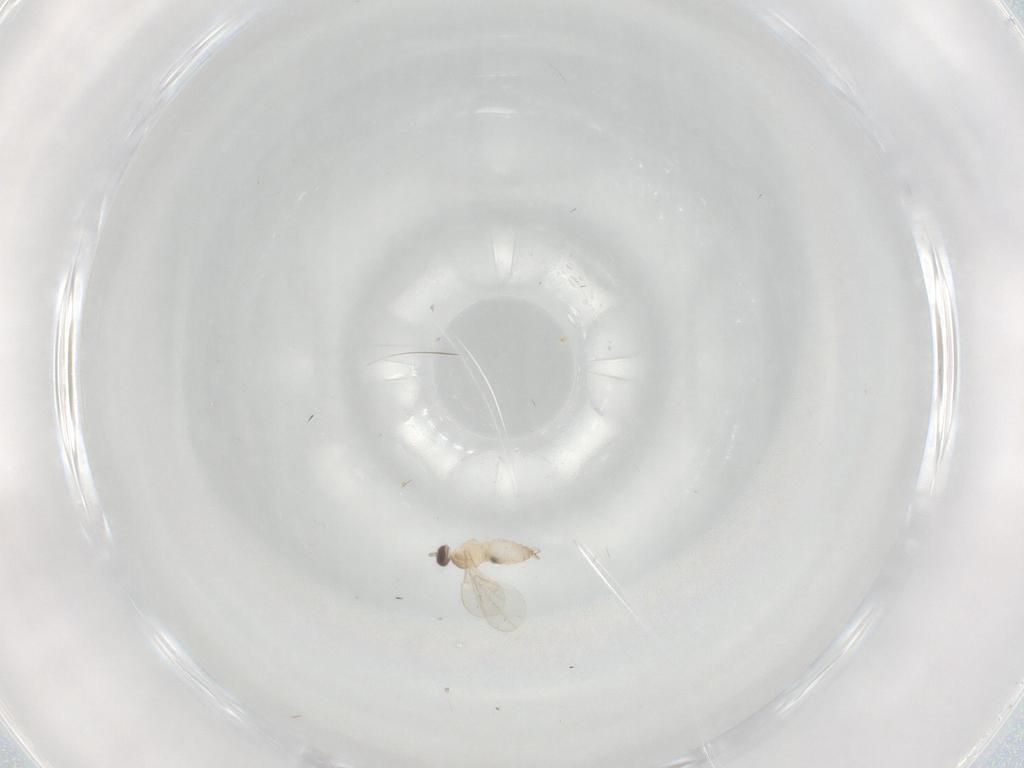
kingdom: Animalia
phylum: Arthropoda
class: Insecta
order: Diptera
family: Cecidomyiidae
